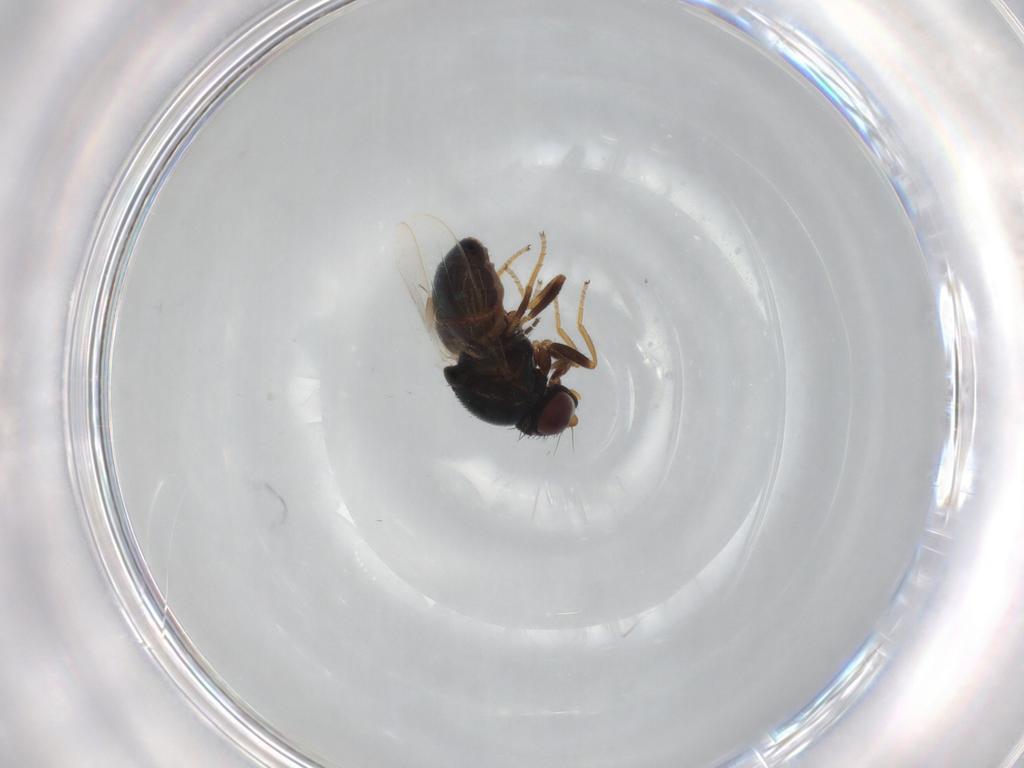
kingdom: Animalia
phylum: Arthropoda
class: Insecta
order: Diptera
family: Chloropidae
